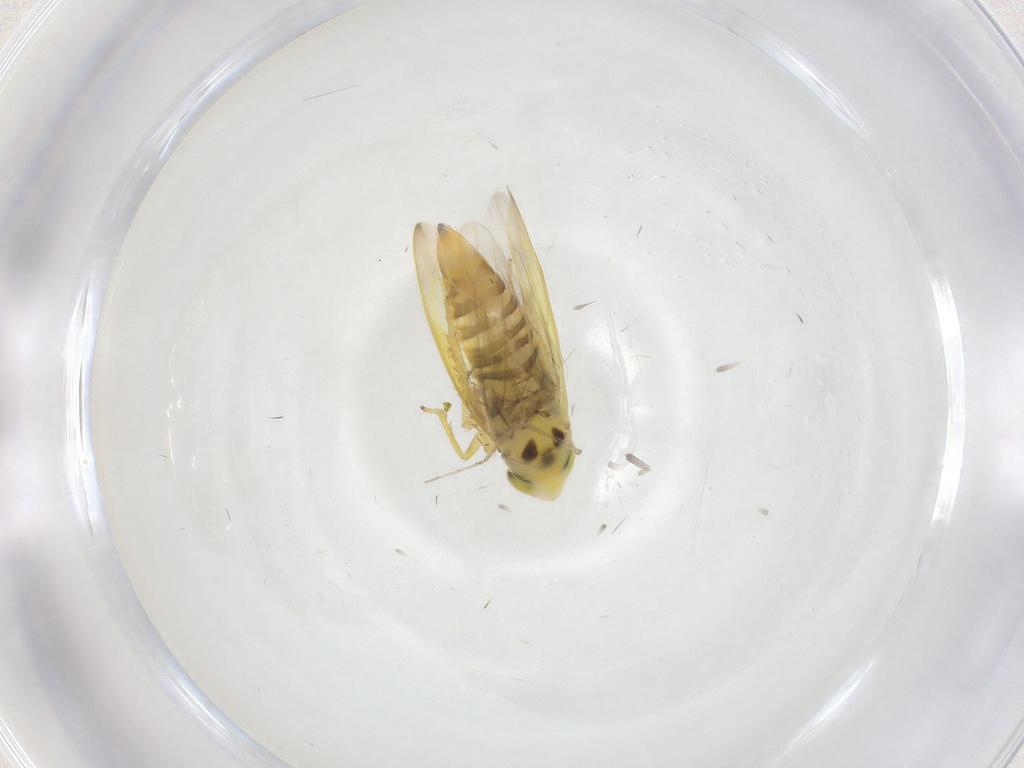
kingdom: Animalia
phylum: Arthropoda
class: Insecta
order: Hemiptera
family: Cicadellidae
